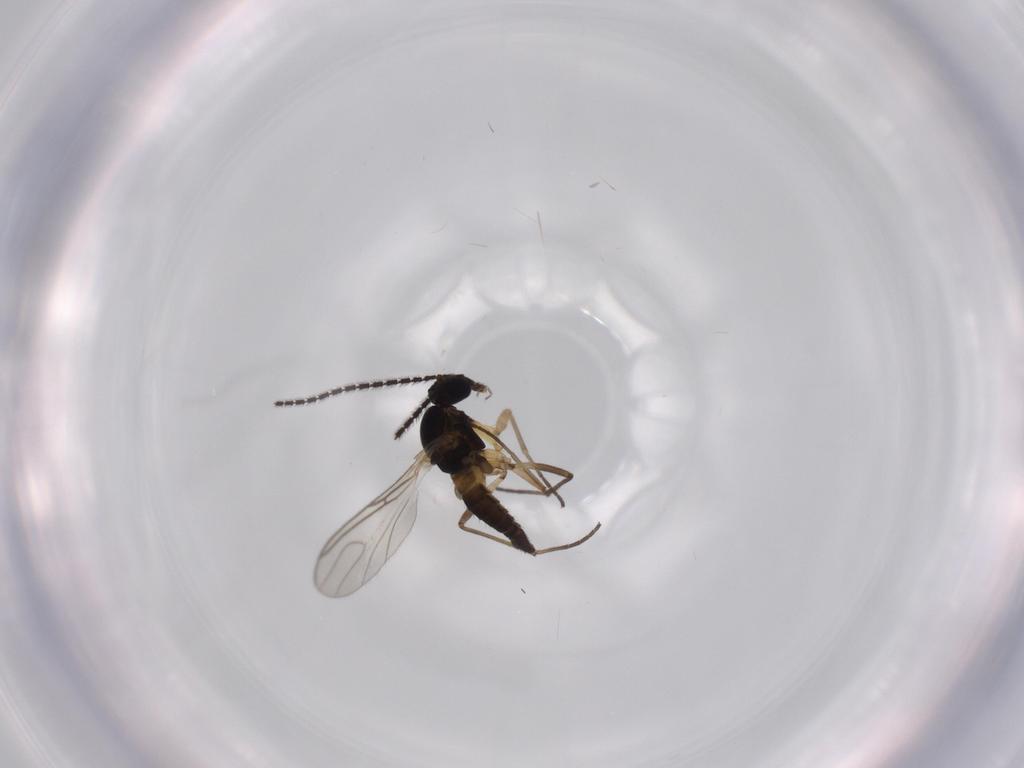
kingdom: Animalia
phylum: Arthropoda
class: Insecta
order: Diptera
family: Sciaridae
